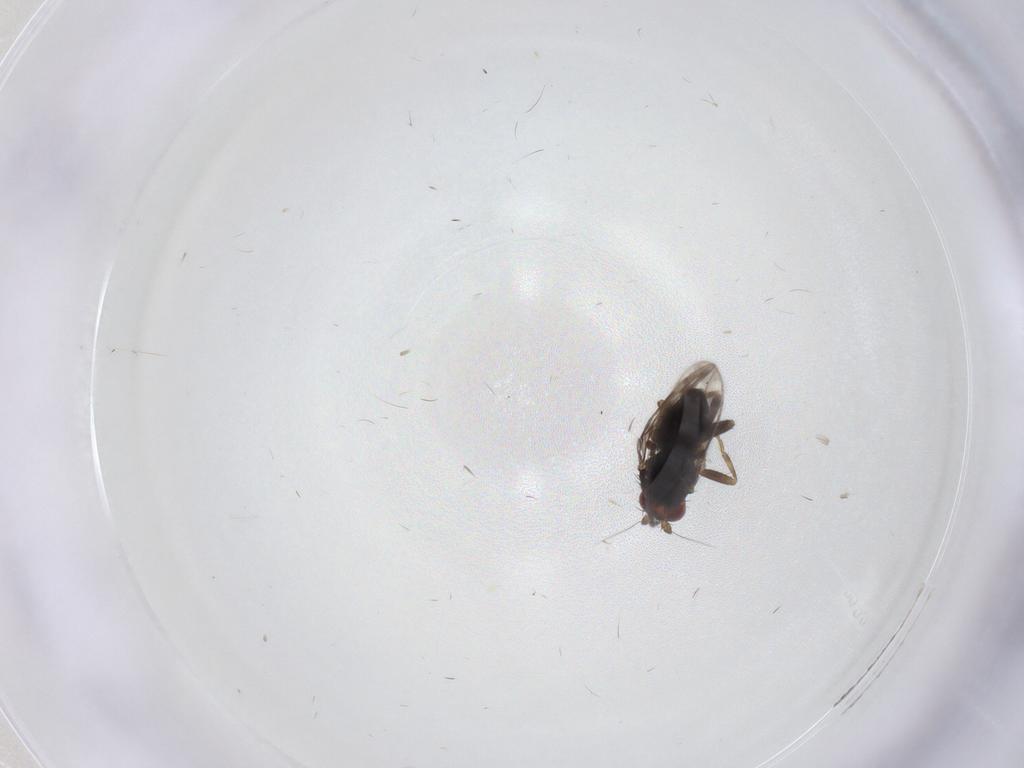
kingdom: Animalia
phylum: Arthropoda
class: Insecta
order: Diptera
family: Sphaeroceridae
